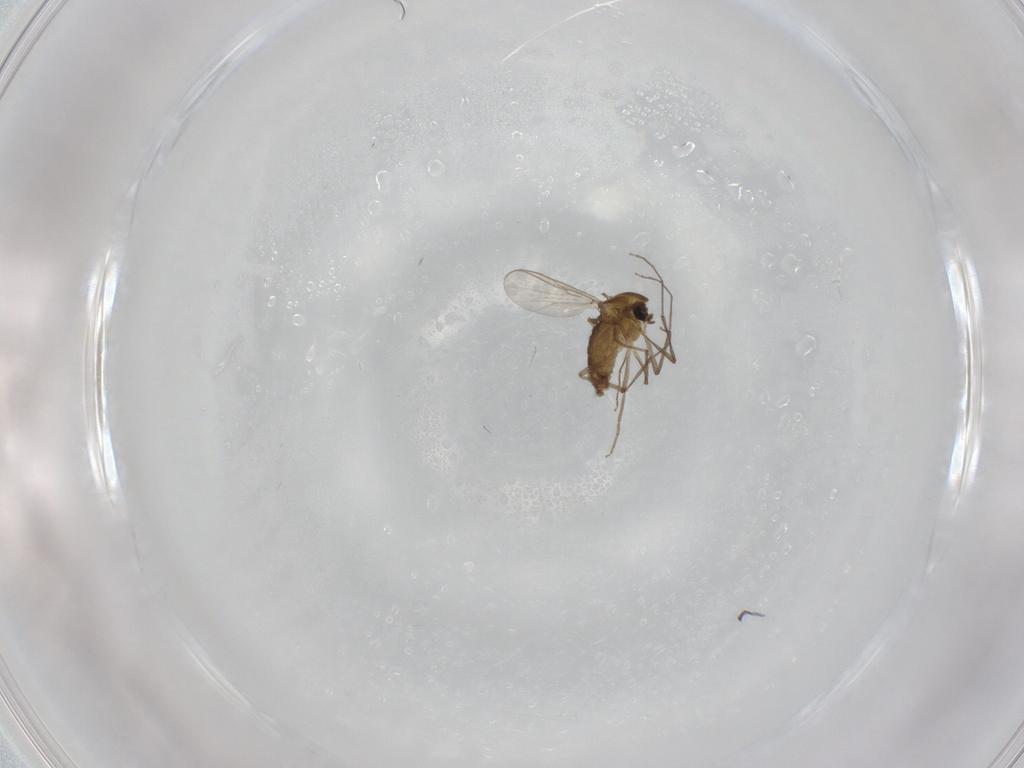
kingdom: Animalia
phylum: Arthropoda
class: Insecta
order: Diptera
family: Chironomidae
